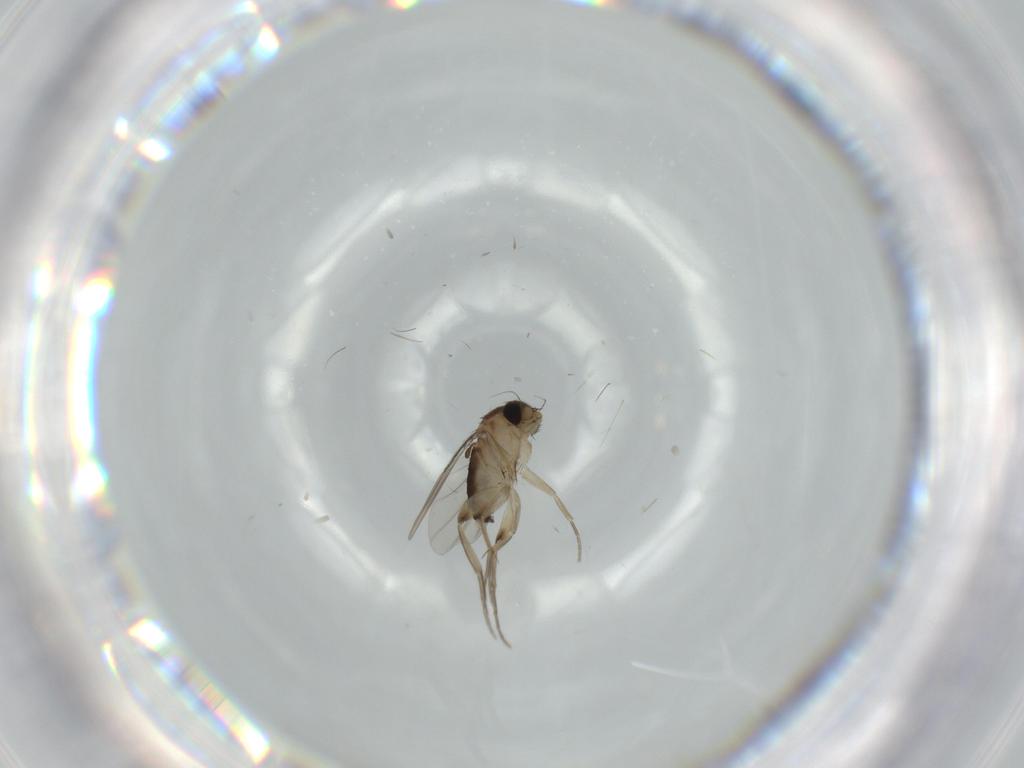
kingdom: Animalia
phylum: Arthropoda
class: Insecta
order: Diptera
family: Phoridae
